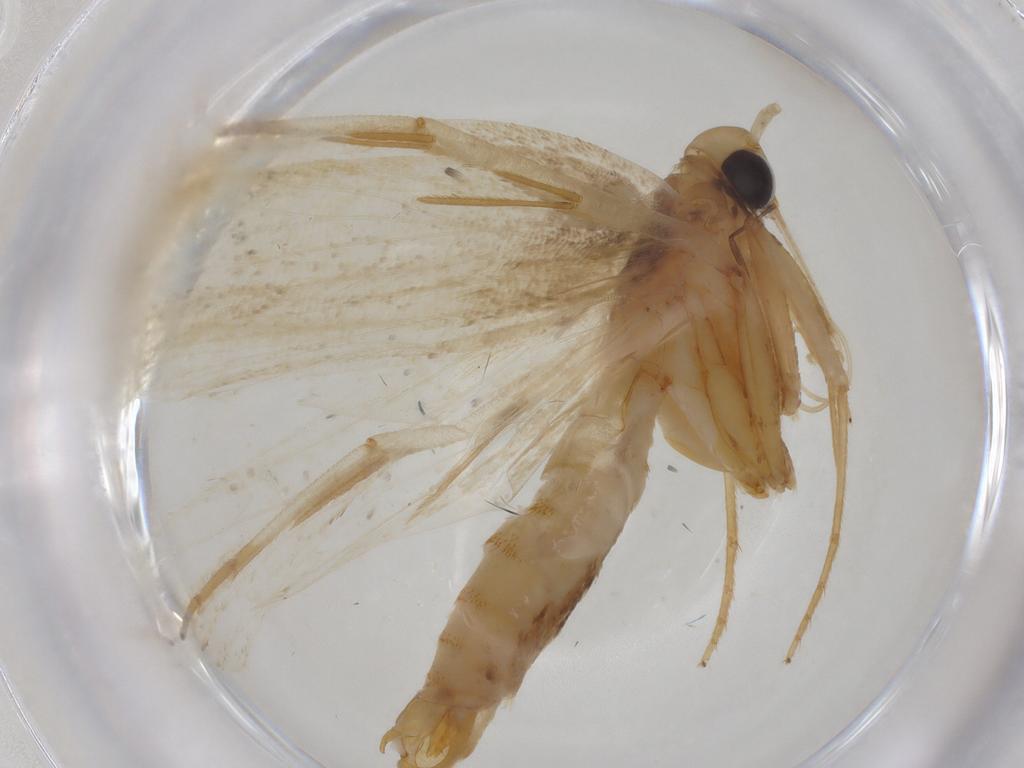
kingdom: Animalia
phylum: Arthropoda
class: Insecta
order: Lepidoptera
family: Lecithoceridae
